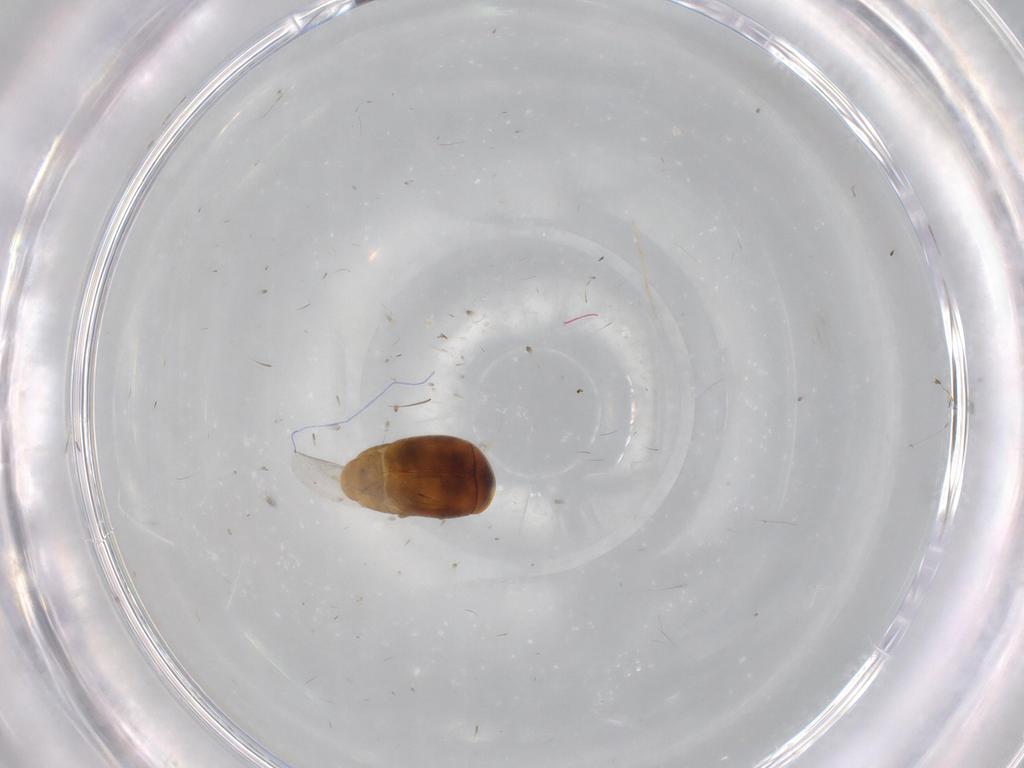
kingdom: Animalia
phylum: Arthropoda
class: Insecta
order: Coleoptera
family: Corylophidae
